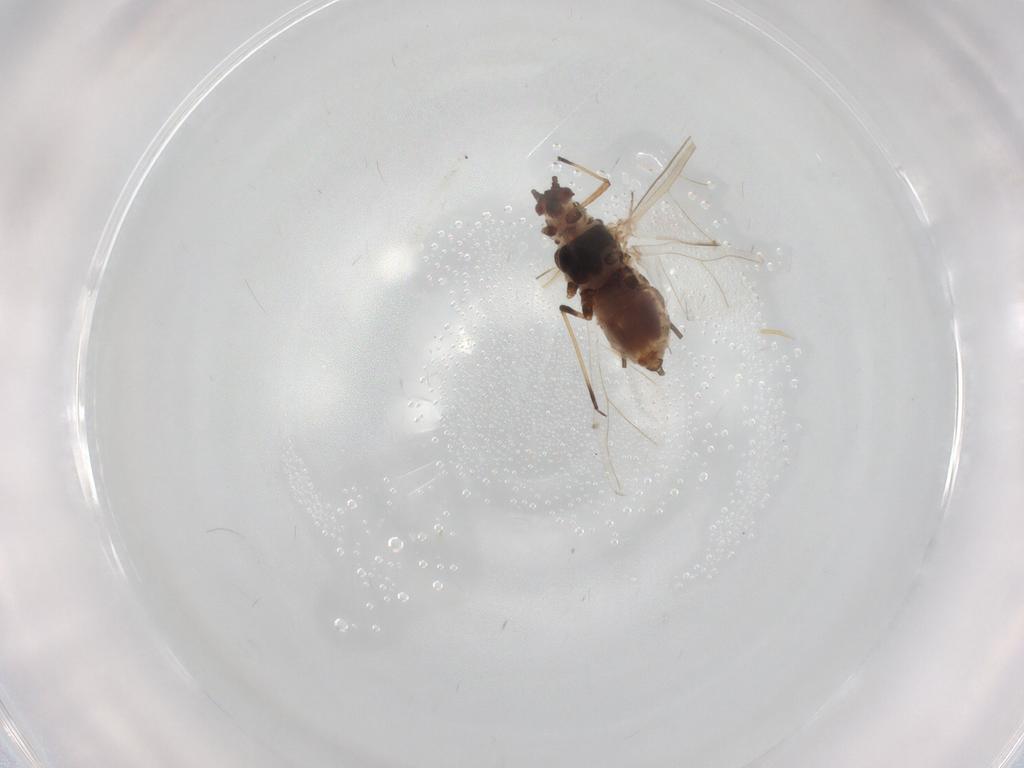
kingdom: Animalia
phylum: Arthropoda
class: Insecta
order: Hemiptera
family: Aphididae
